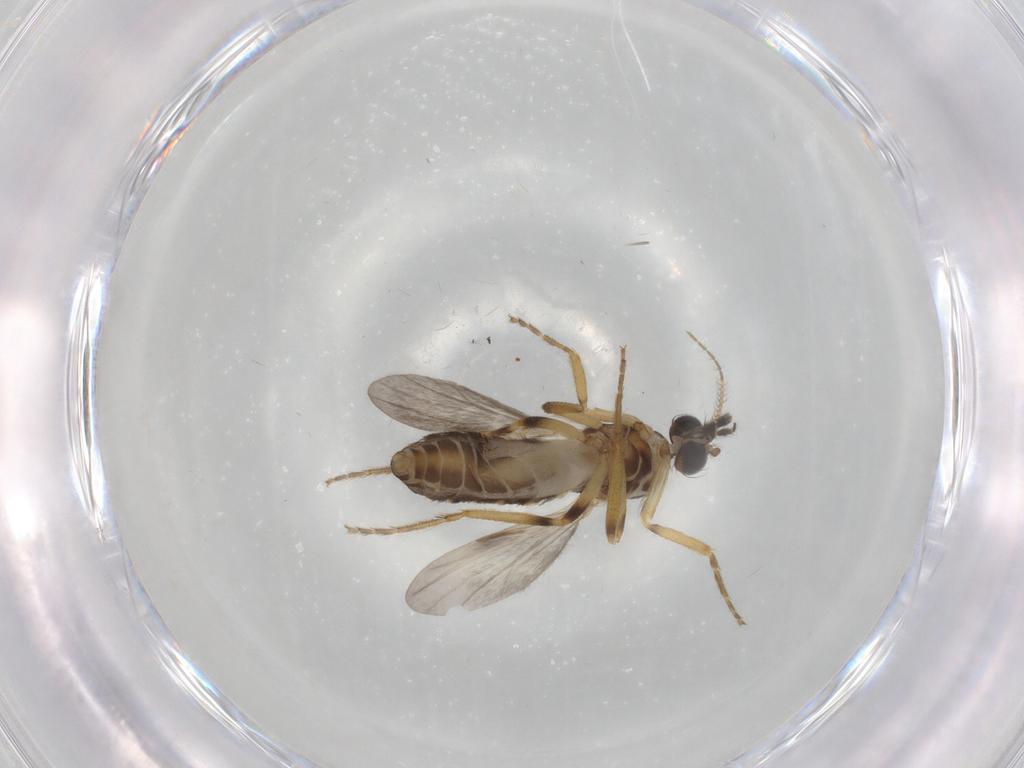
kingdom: Animalia
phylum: Arthropoda
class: Insecta
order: Diptera
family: Ceratopogonidae
